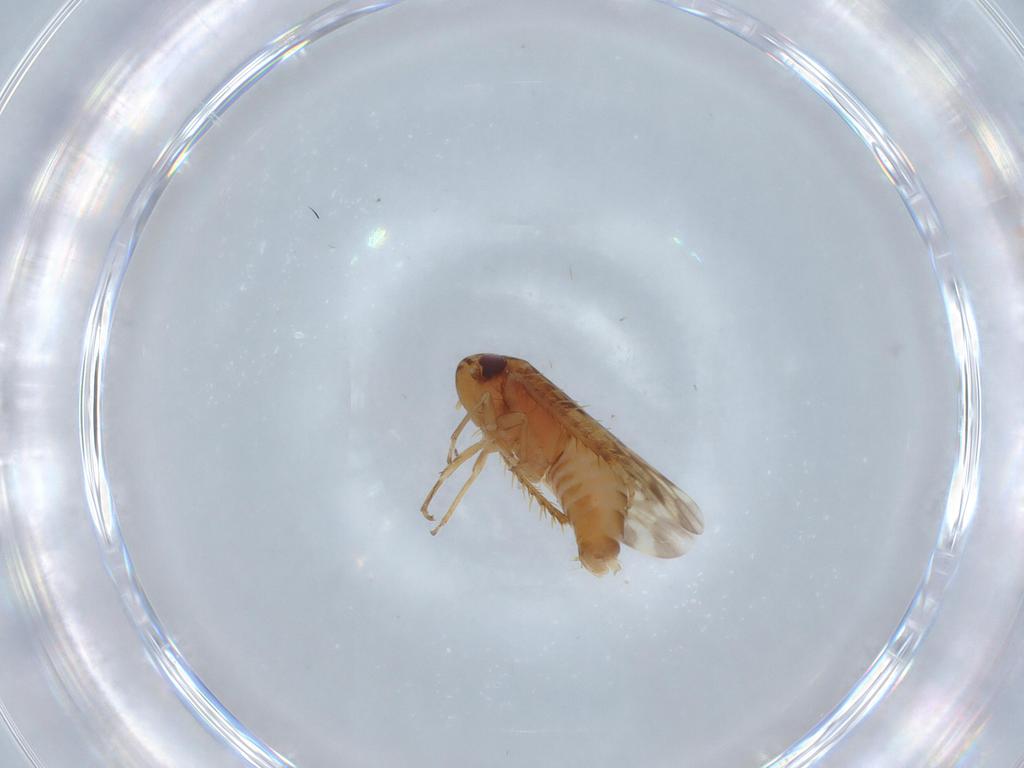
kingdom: Animalia
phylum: Arthropoda
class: Insecta
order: Hemiptera
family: Cicadellidae
